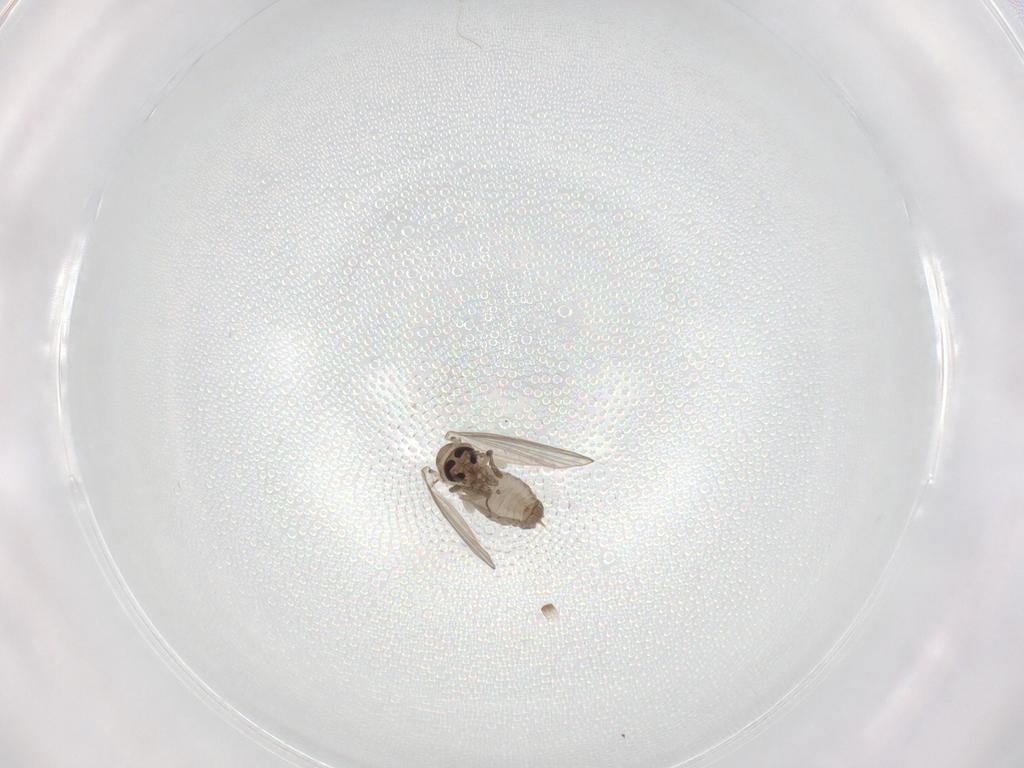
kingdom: Animalia
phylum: Arthropoda
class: Insecta
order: Diptera
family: Psychodidae
